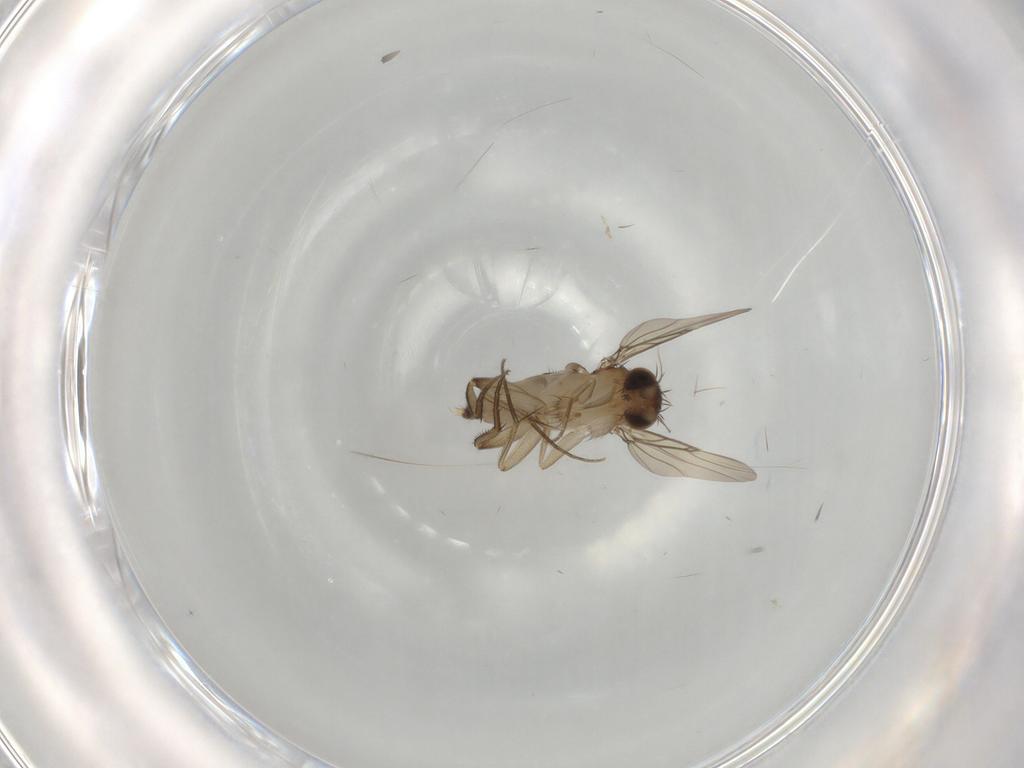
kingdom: Animalia
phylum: Arthropoda
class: Insecta
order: Diptera
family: Phoridae
